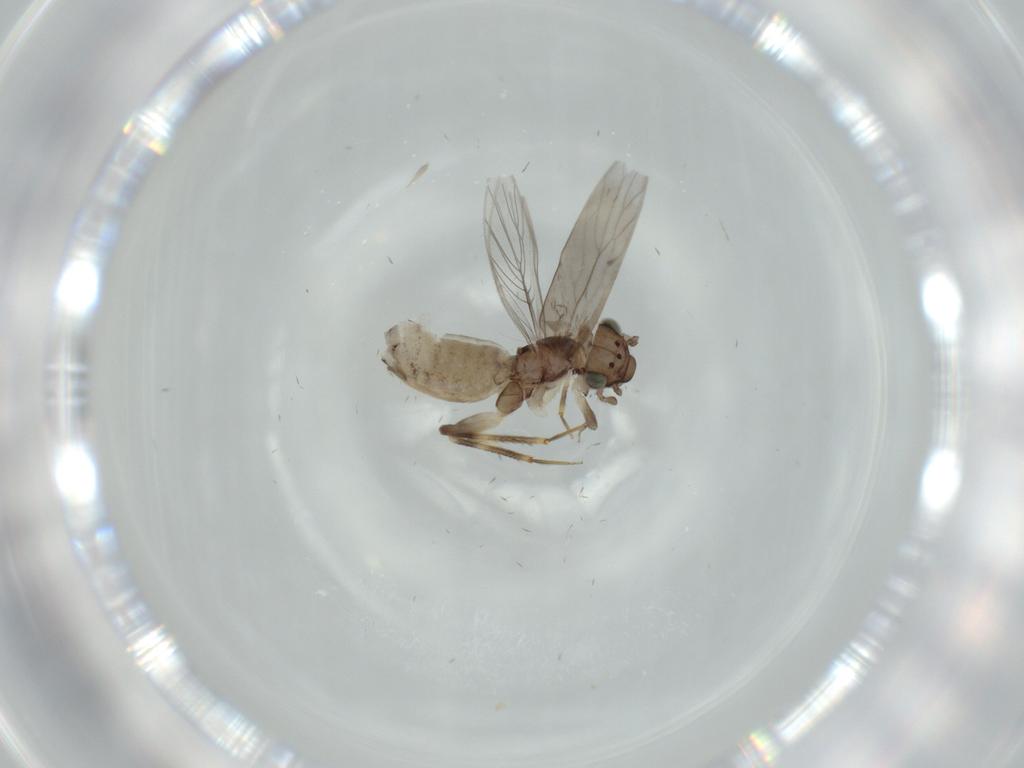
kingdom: Animalia
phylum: Arthropoda
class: Insecta
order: Psocodea
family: Lepidopsocidae
